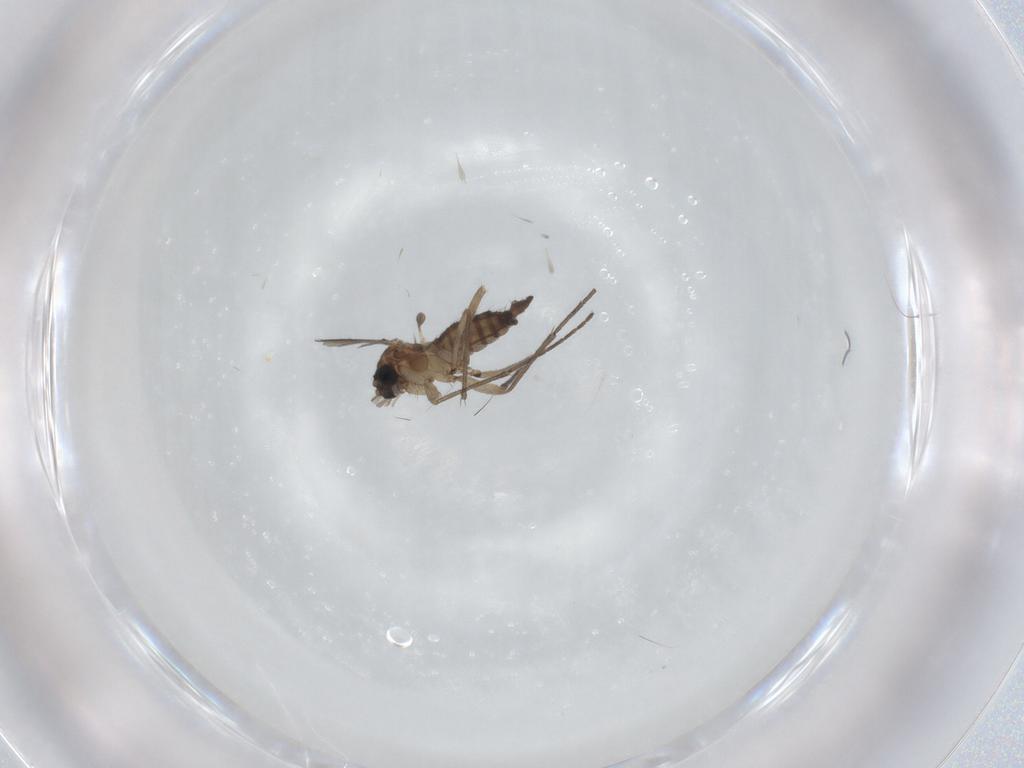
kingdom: Animalia
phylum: Arthropoda
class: Insecta
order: Diptera
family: Sciaridae
